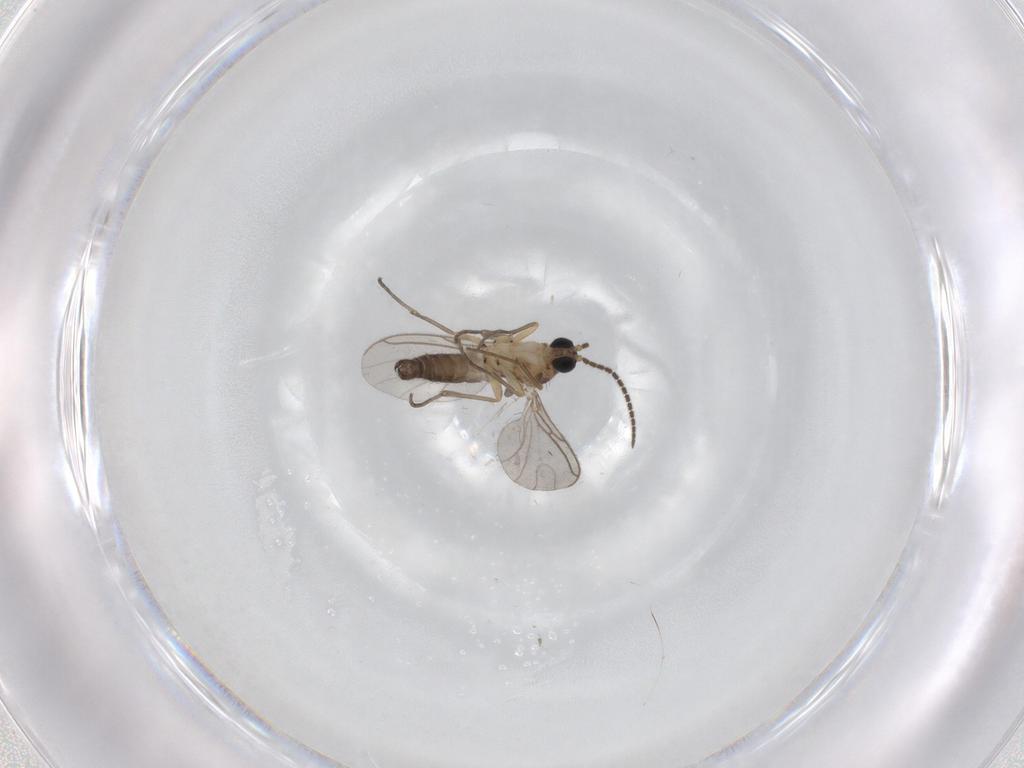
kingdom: Animalia
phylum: Arthropoda
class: Insecta
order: Diptera
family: Sciaridae
